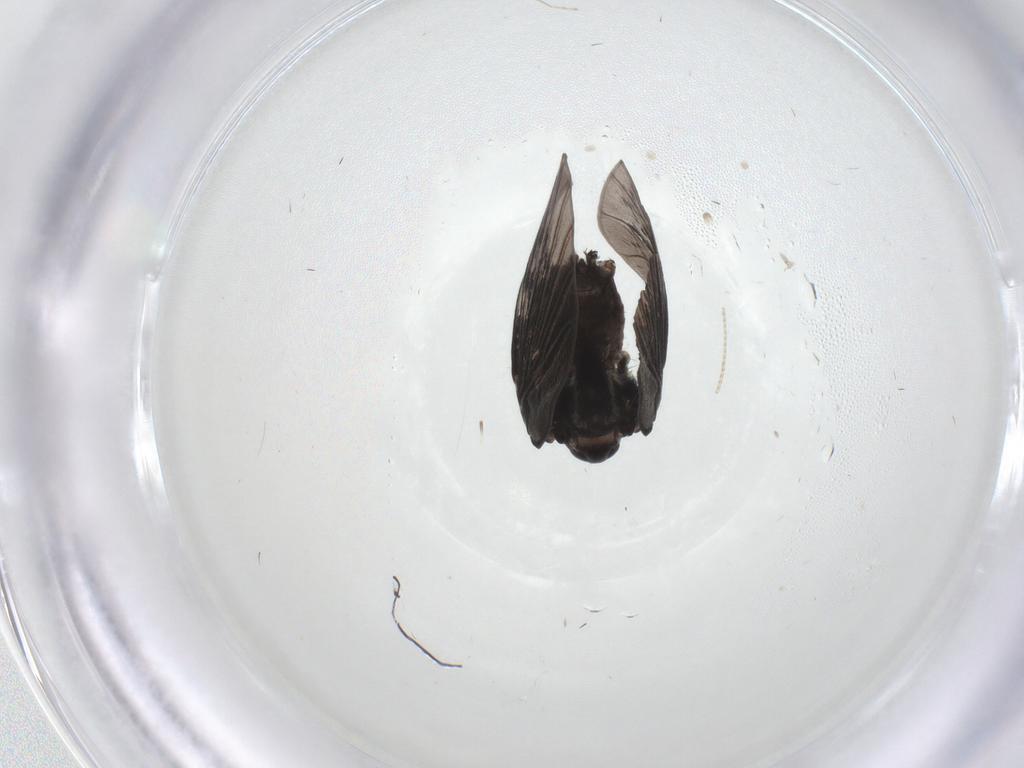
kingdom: Animalia
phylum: Arthropoda
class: Insecta
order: Diptera
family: Psychodidae
